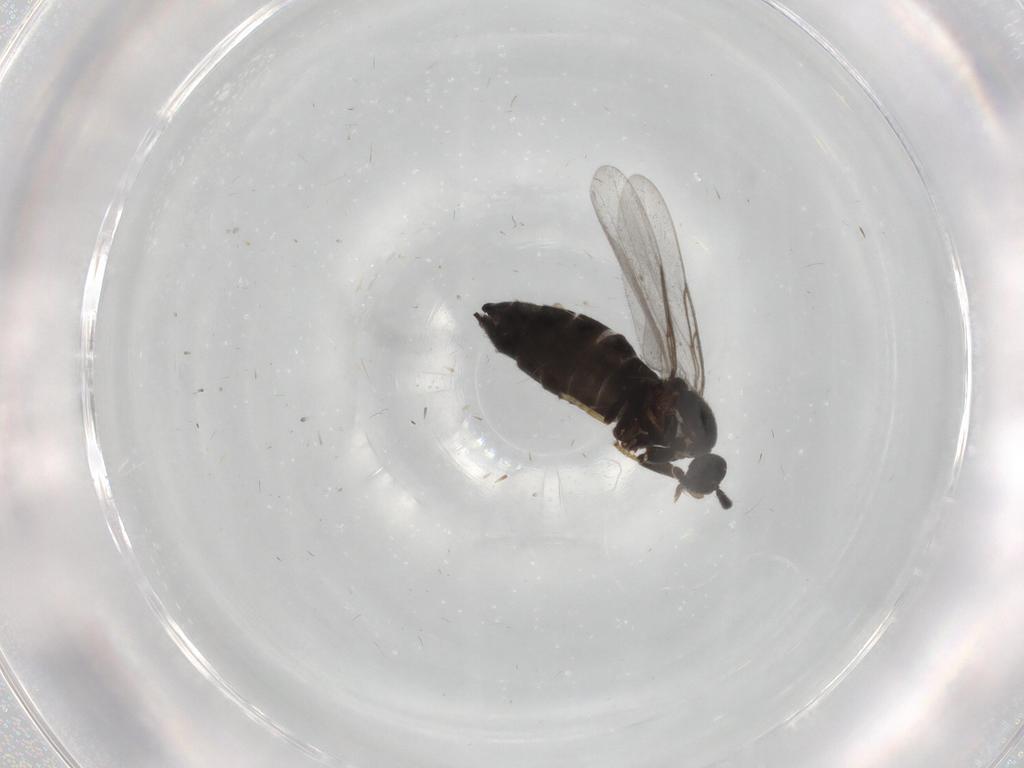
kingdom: Animalia
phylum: Arthropoda
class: Insecta
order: Diptera
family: Scatopsidae
